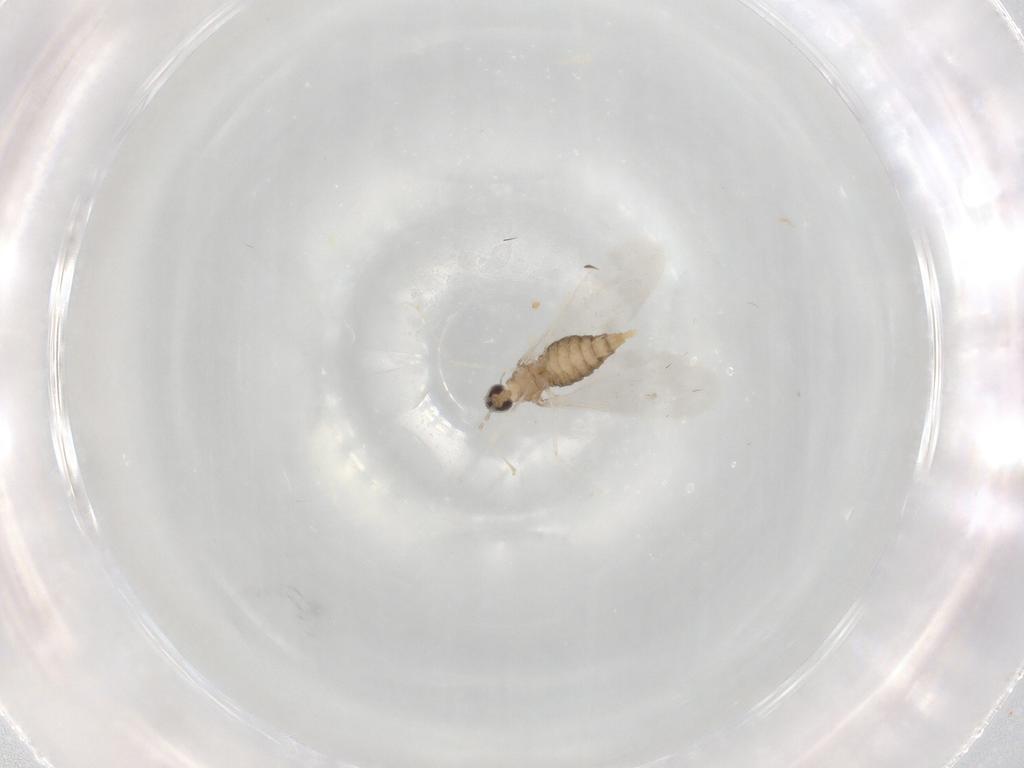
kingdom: Animalia
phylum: Arthropoda
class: Insecta
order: Diptera
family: Cecidomyiidae
